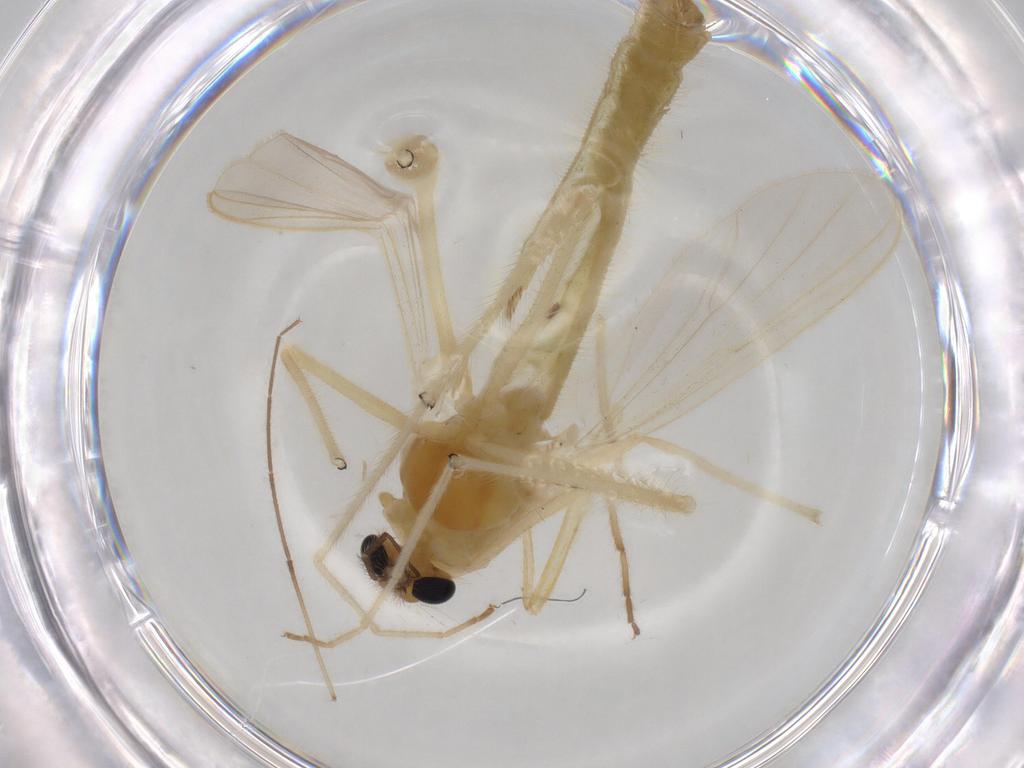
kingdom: Animalia
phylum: Arthropoda
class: Insecta
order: Diptera
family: Chironomidae
